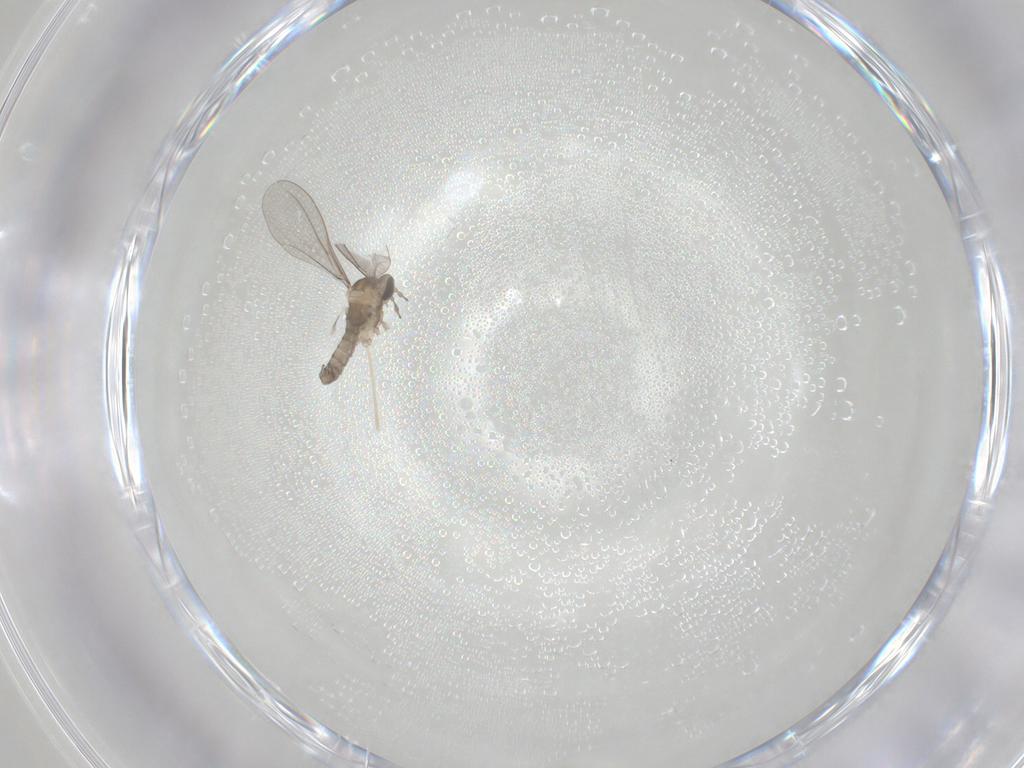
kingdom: Animalia
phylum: Arthropoda
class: Insecta
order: Diptera
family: Cecidomyiidae
